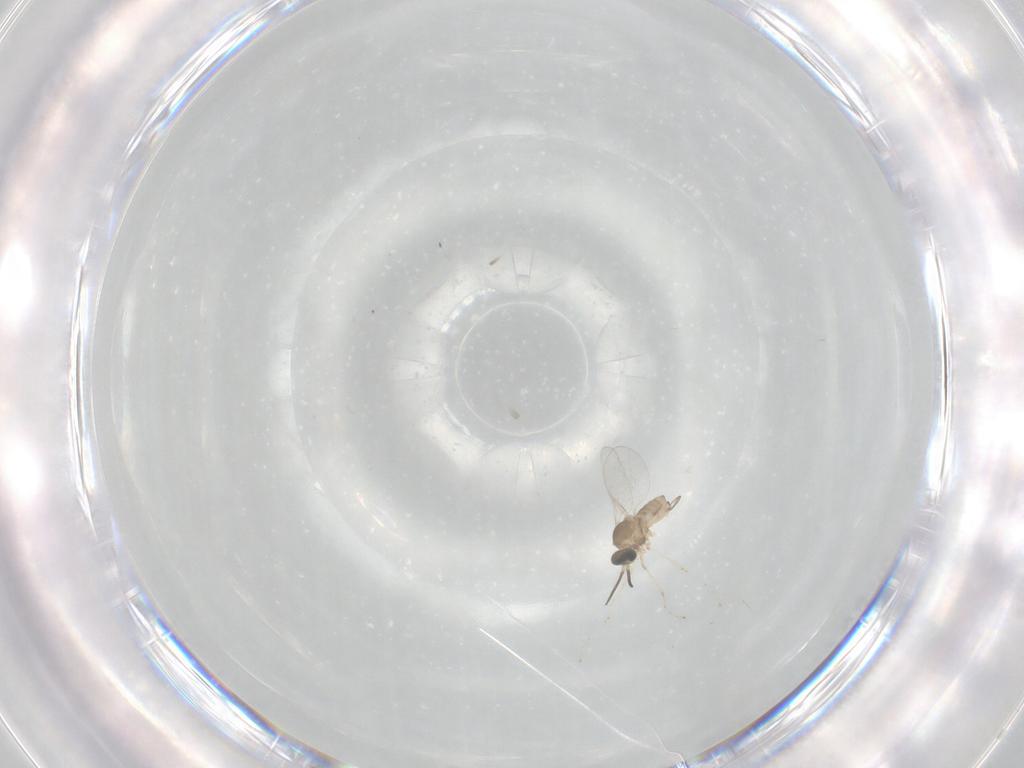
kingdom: Animalia
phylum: Arthropoda
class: Insecta
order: Diptera
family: Cecidomyiidae
